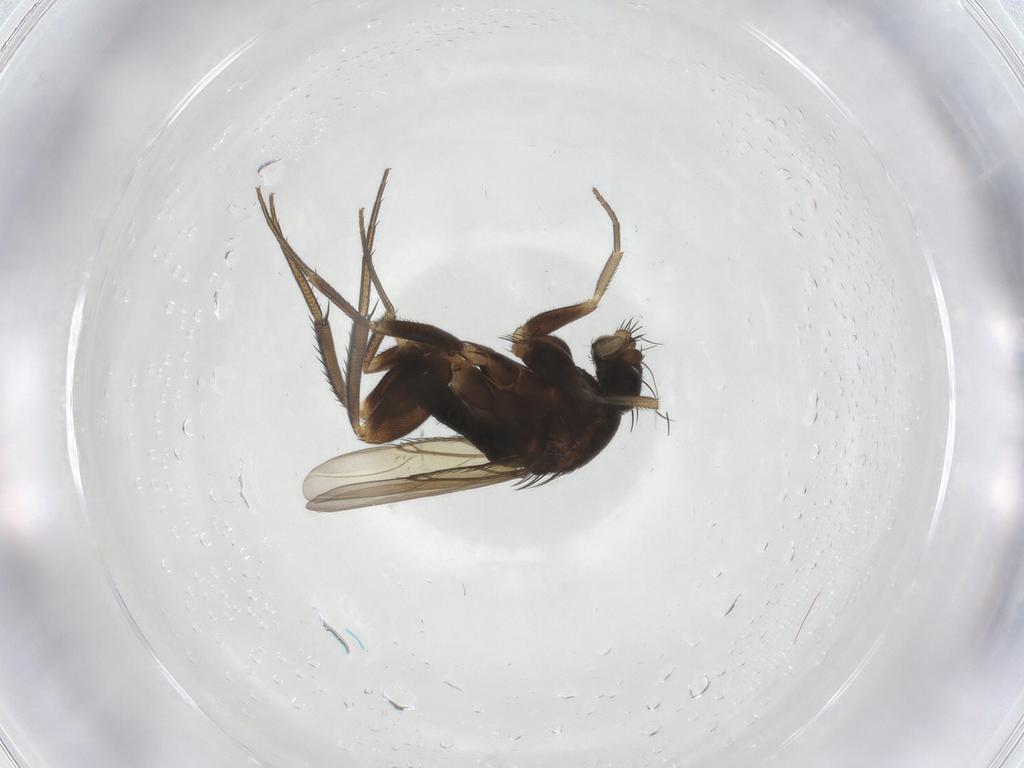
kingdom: Animalia
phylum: Arthropoda
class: Insecta
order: Diptera
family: Phoridae
